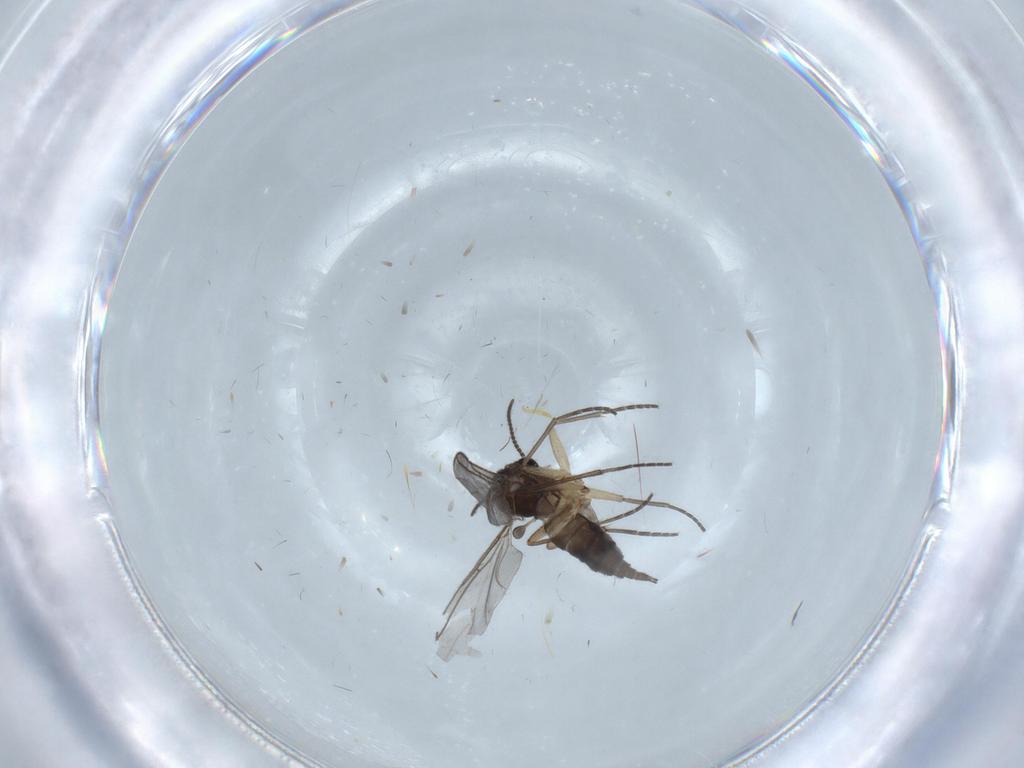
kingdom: Animalia
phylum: Arthropoda
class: Insecta
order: Diptera
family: Sciaridae
